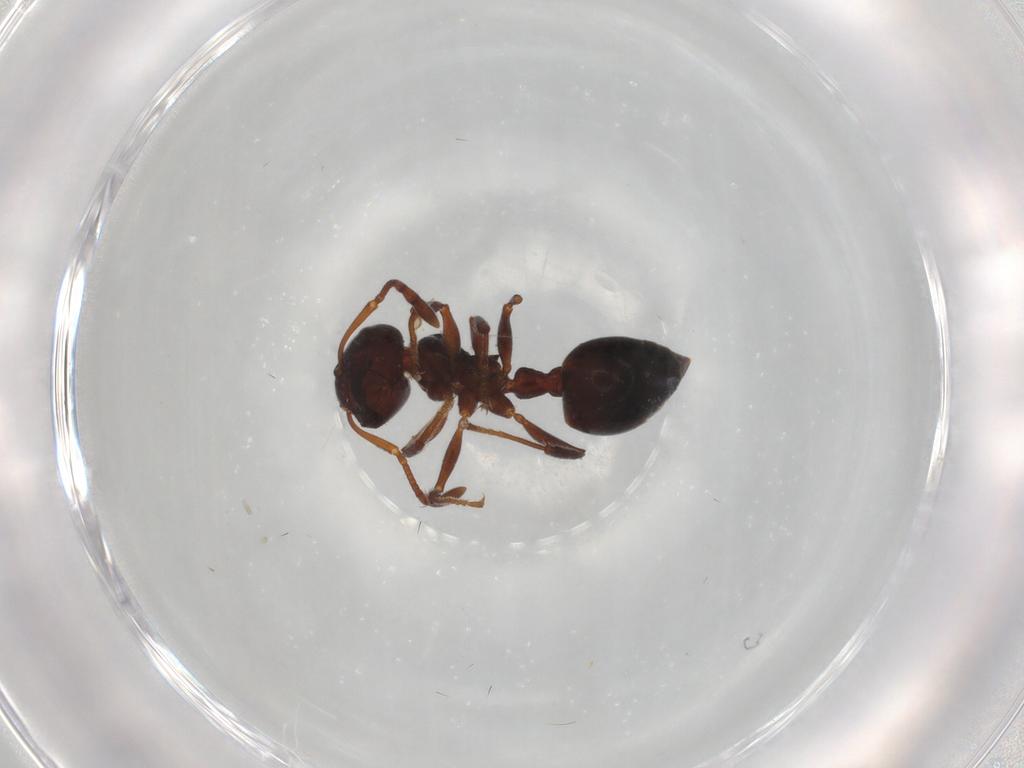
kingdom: Animalia
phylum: Arthropoda
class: Insecta
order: Hymenoptera
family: Formicidae
